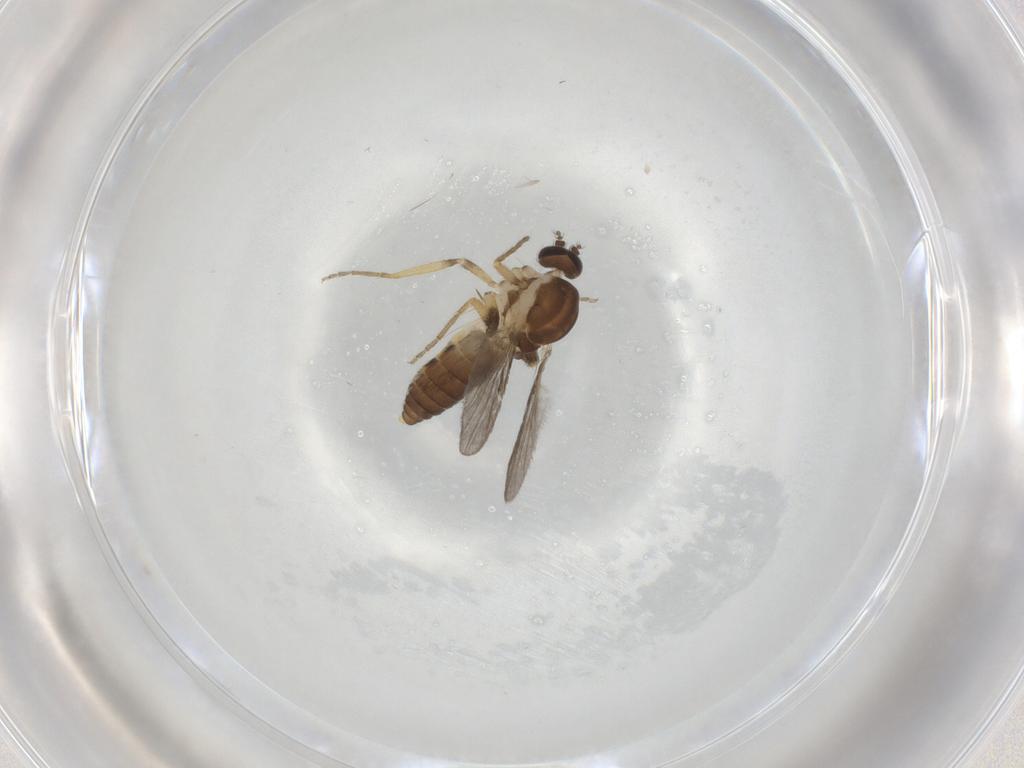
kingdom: Animalia
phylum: Arthropoda
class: Insecta
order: Diptera
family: Ceratopogonidae
